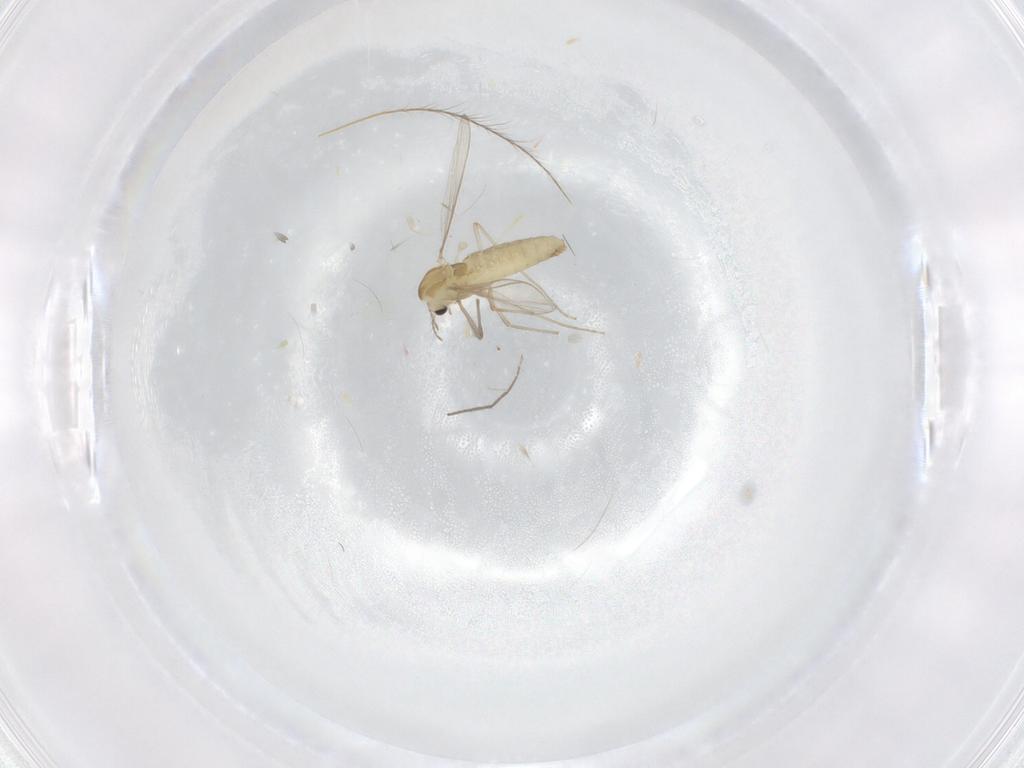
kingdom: Animalia
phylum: Arthropoda
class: Insecta
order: Diptera
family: Chironomidae
